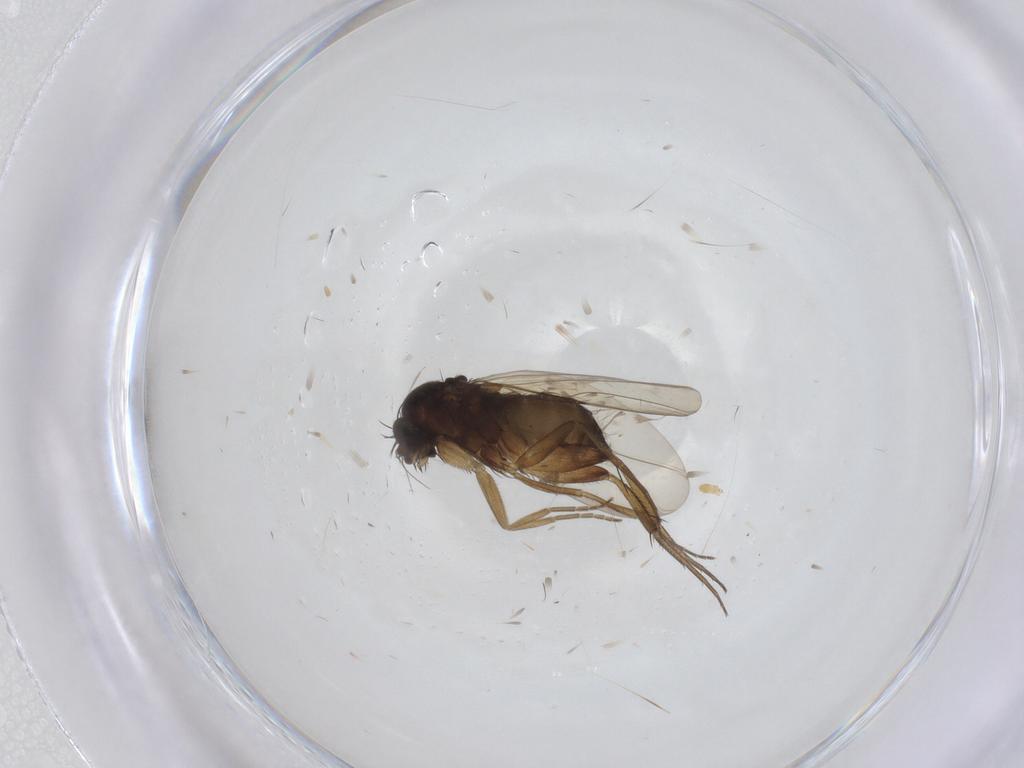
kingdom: Animalia
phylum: Arthropoda
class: Insecta
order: Diptera
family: Phoridae
